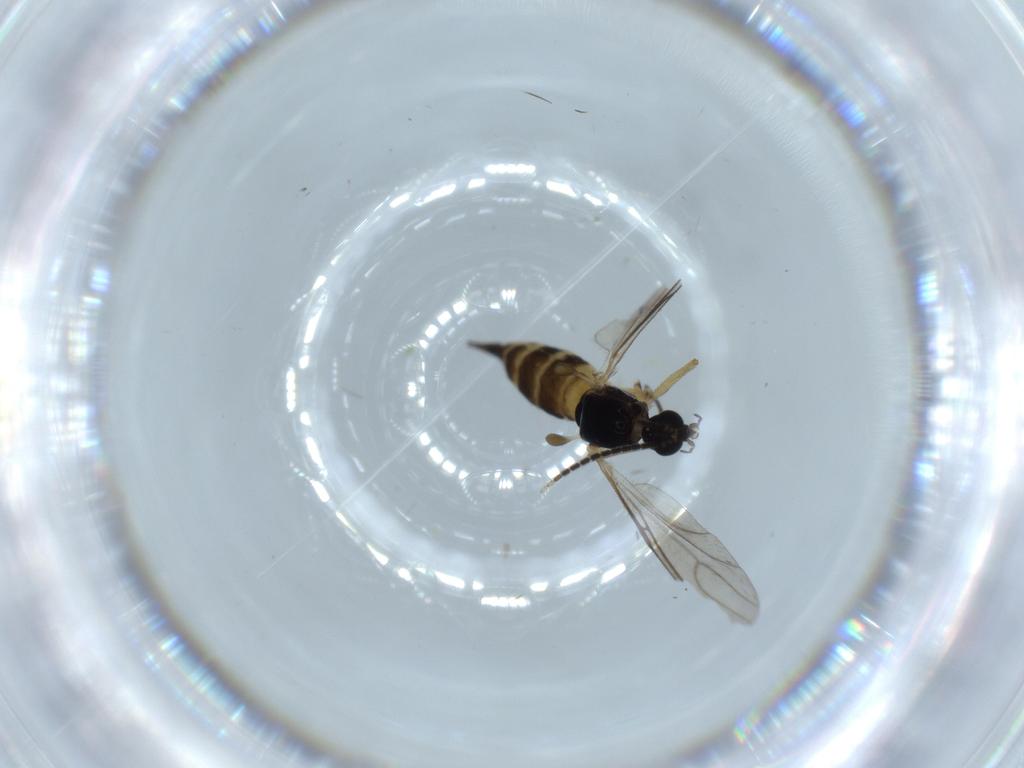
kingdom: Animalia
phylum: Arthropoda
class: Insecta
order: Diptera
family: Sciaridae
